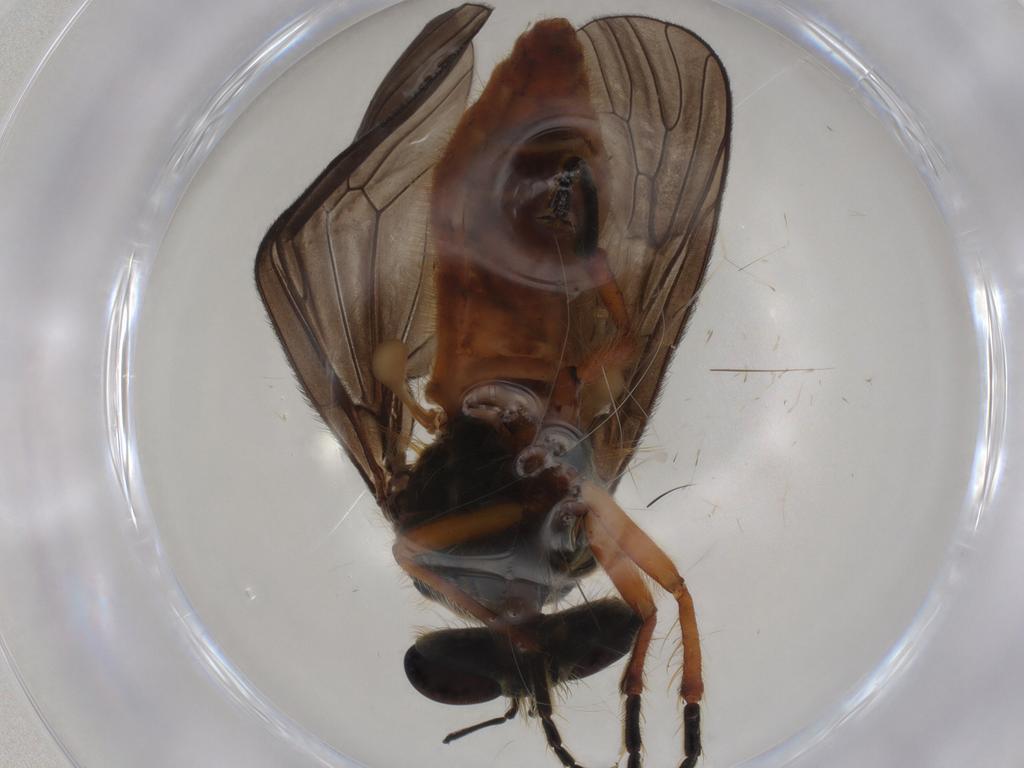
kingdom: Animalia
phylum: Arthropoda
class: Insecta
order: Diptera
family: Asilidae
